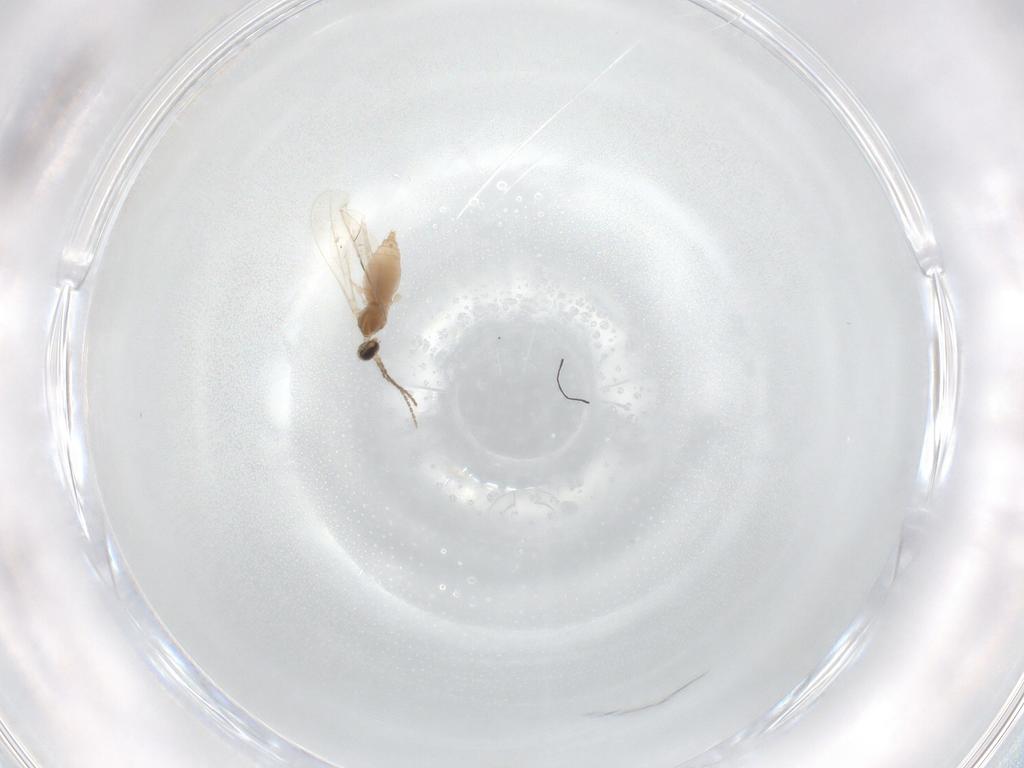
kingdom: Animalia
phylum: Arthropoda
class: Insecta
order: Diptera
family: Cecidomyiidae
